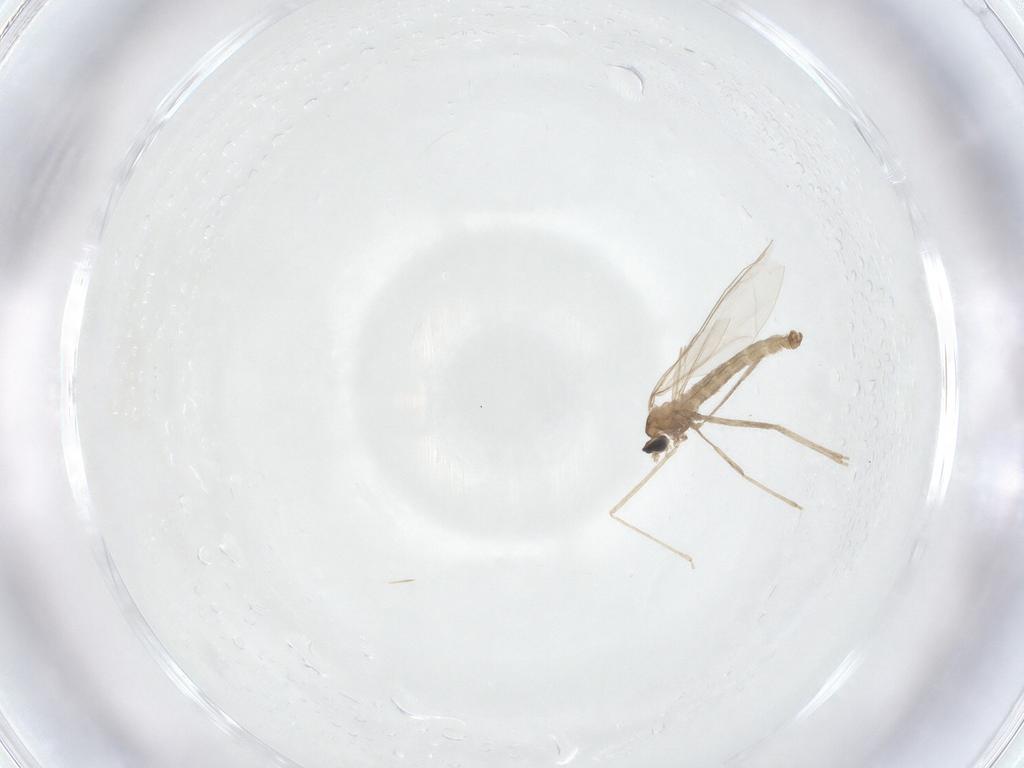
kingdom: Animalia
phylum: Arthropoda
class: Insecta
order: Diptera
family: Cecidomyiidae
